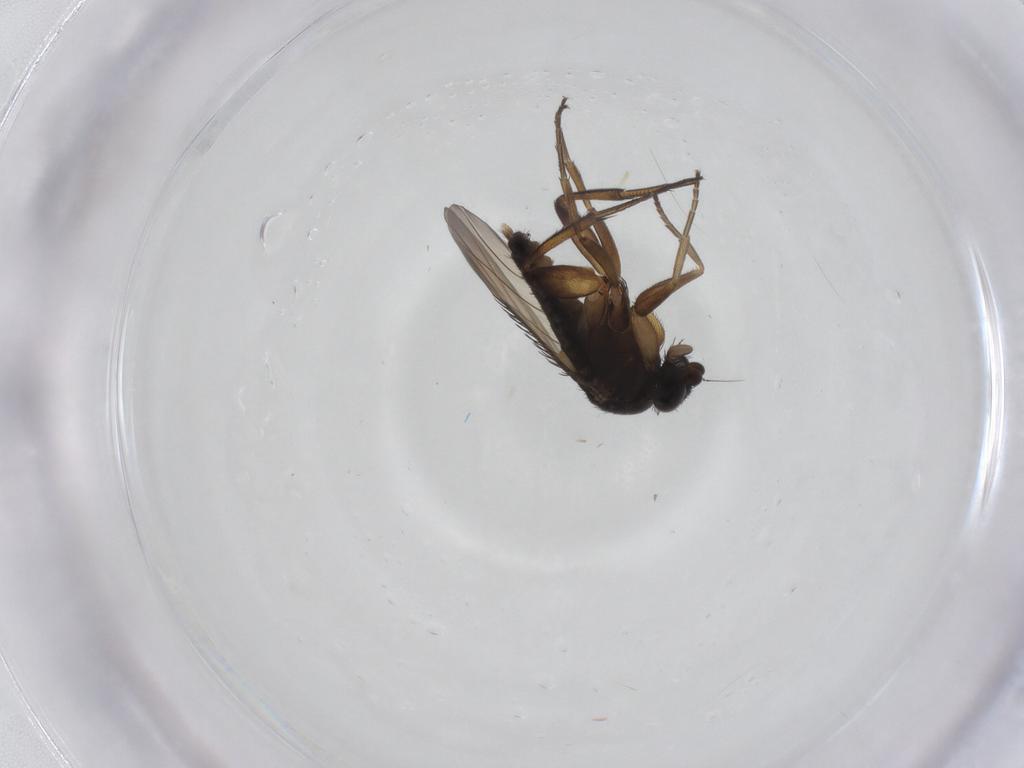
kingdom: Animalia
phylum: Arthropoda
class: Insecta
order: Diptera
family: Phoridae
